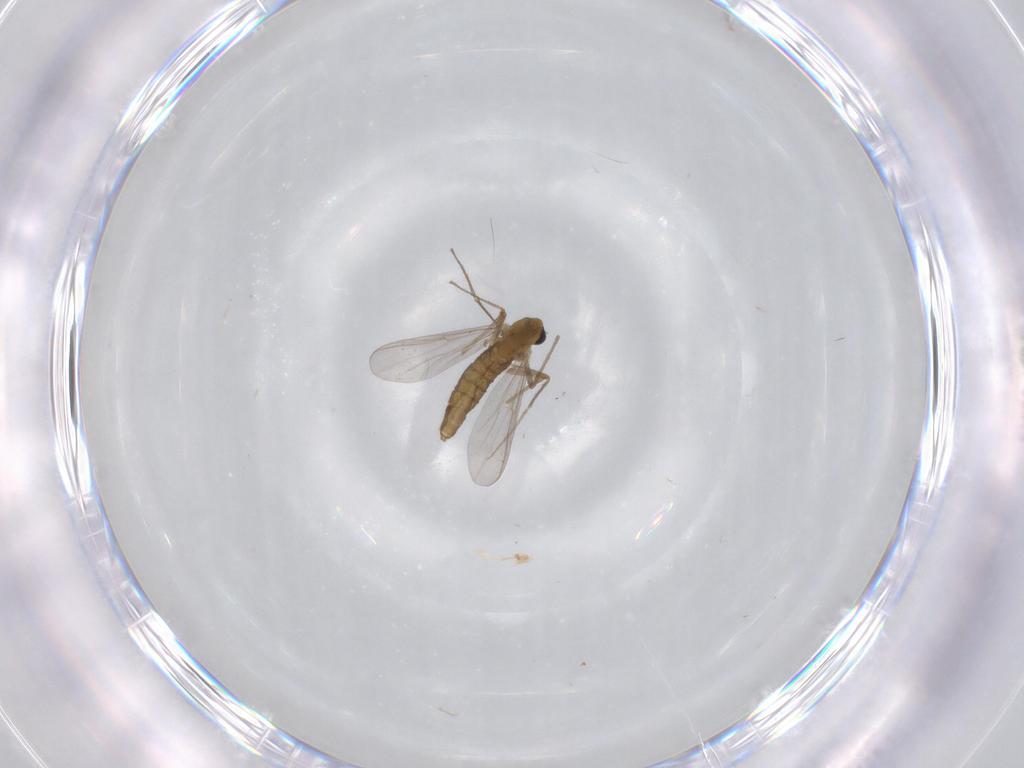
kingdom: Animalia
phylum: Arthropoda
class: Insecta
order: Diptera
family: Chironomidae
